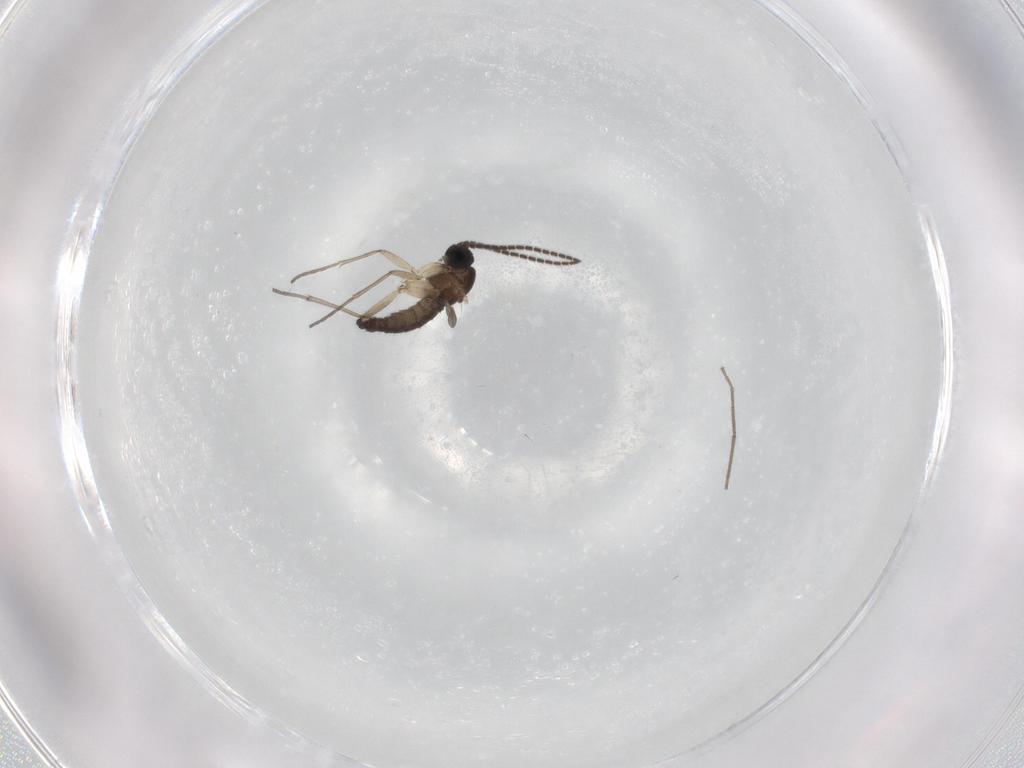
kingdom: Animalia
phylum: Arthropoda
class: Insecta
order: Diptera
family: Sciaridae
